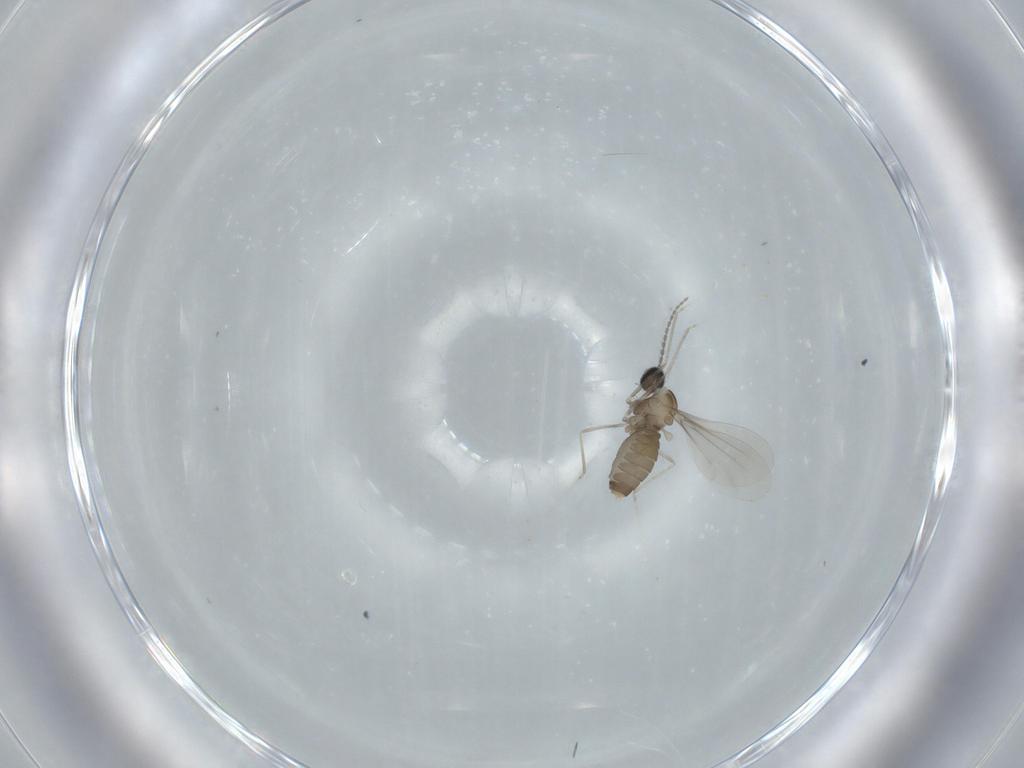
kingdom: Animalia
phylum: Arthropoda
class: Insecta
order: Diptera
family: Cecidomyiidae
